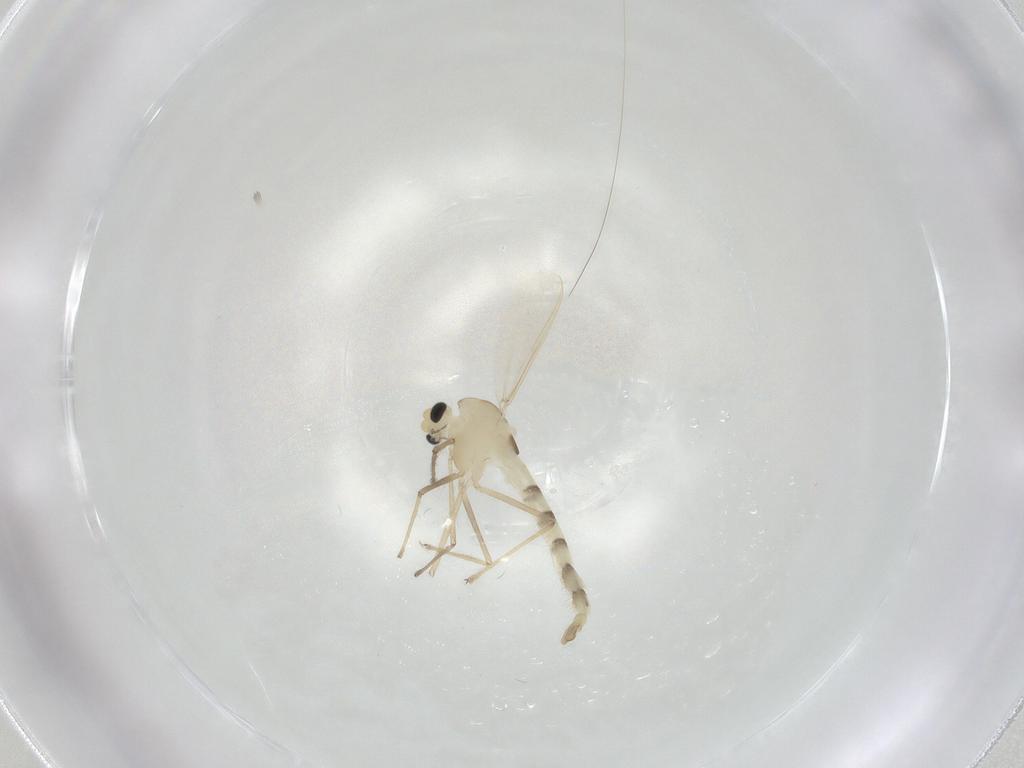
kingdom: Animalia
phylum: Arthropoda
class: Insecta
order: Diptera
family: Chironomidae
